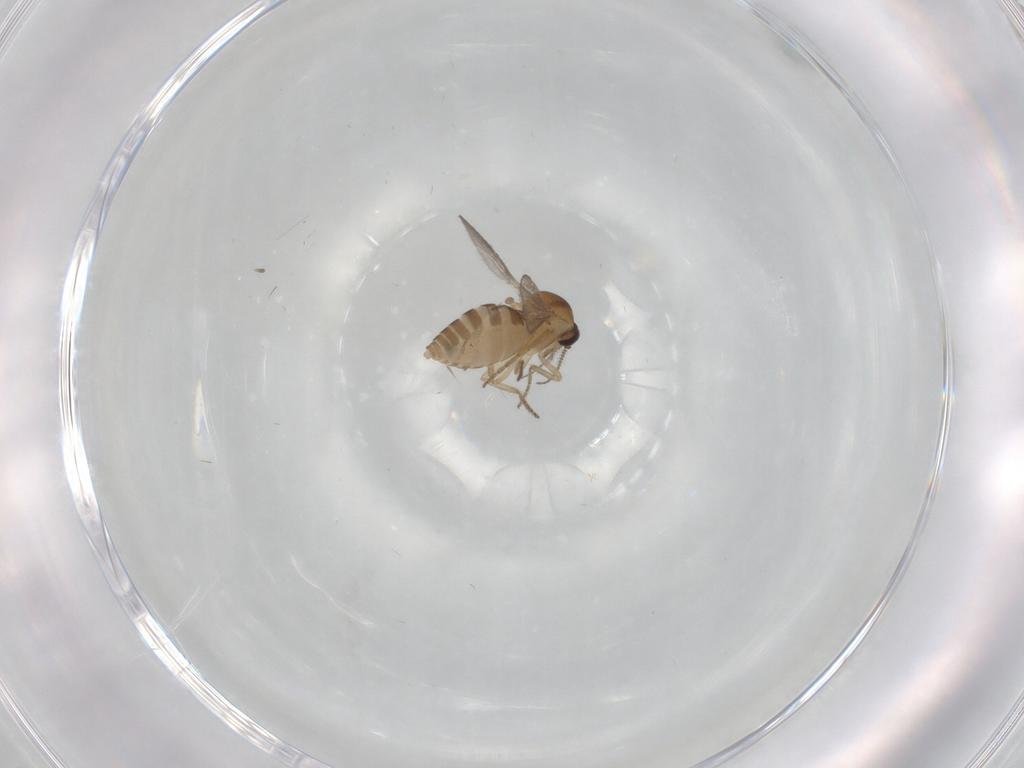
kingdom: Animalia
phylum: Arthropoda
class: Insecta
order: Diptera
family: Ceratopogonidae
